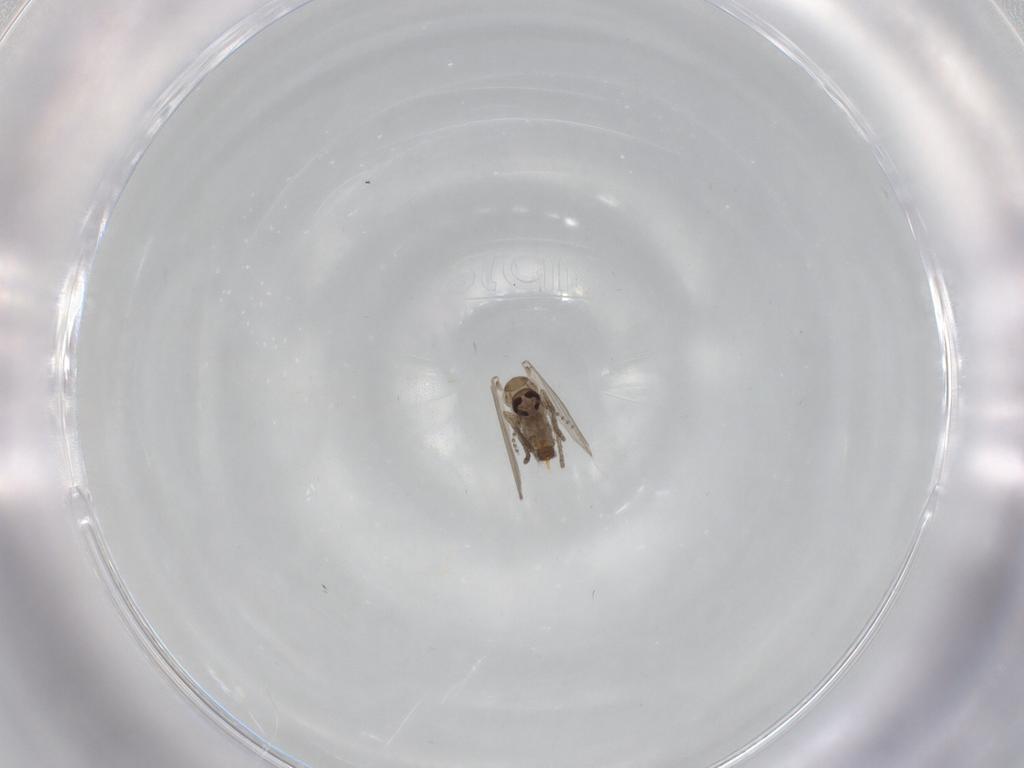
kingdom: Animalia
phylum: Arthropoda
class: Insecta
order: Diptera
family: Psychodidae
